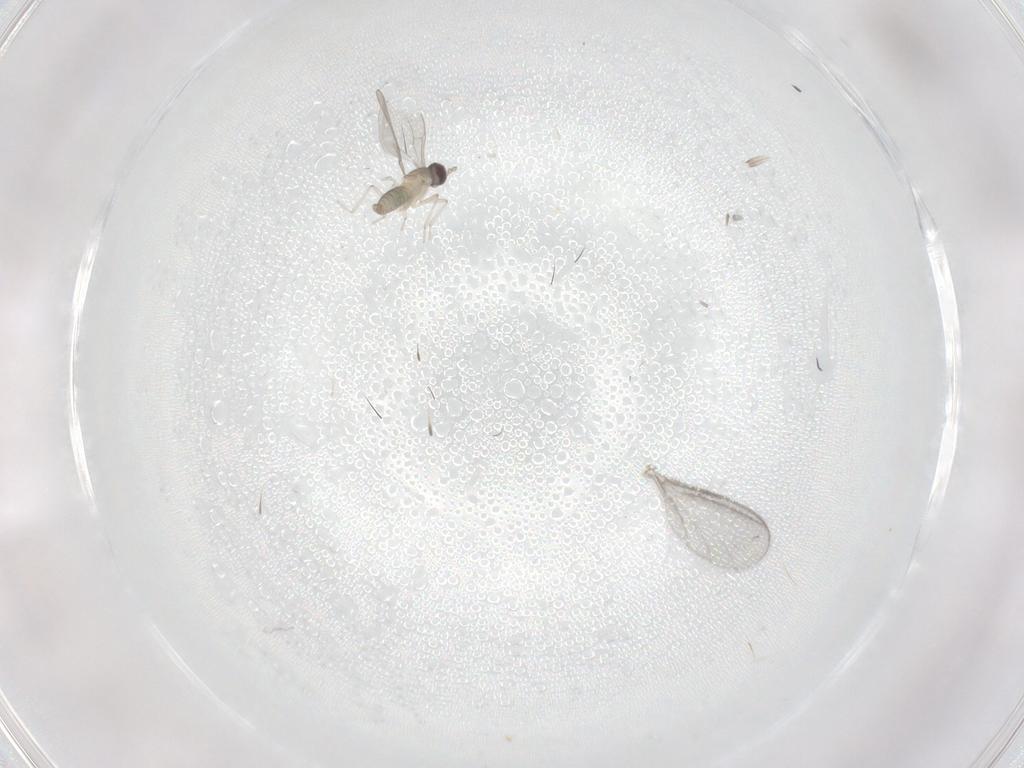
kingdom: Animalia
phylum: Arthropoda
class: Insecta
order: Diptera
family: Cecidomyiidae
